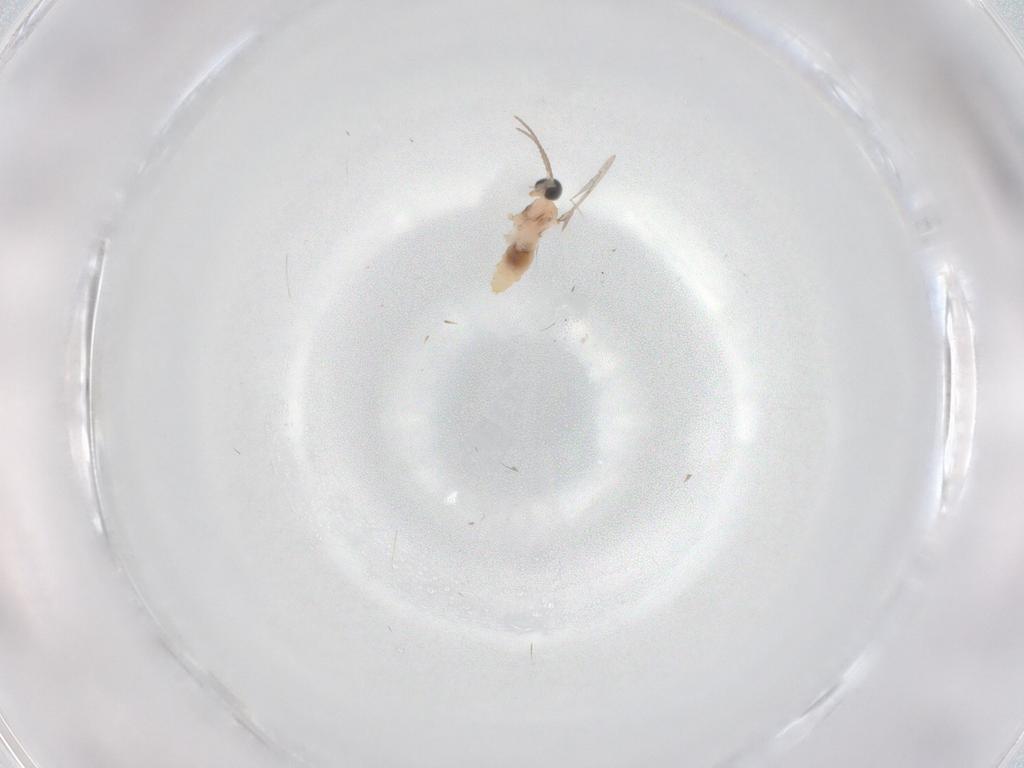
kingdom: Animalia
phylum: Arthropoda
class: Insecta
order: Diptera
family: Cecidomyiidae
